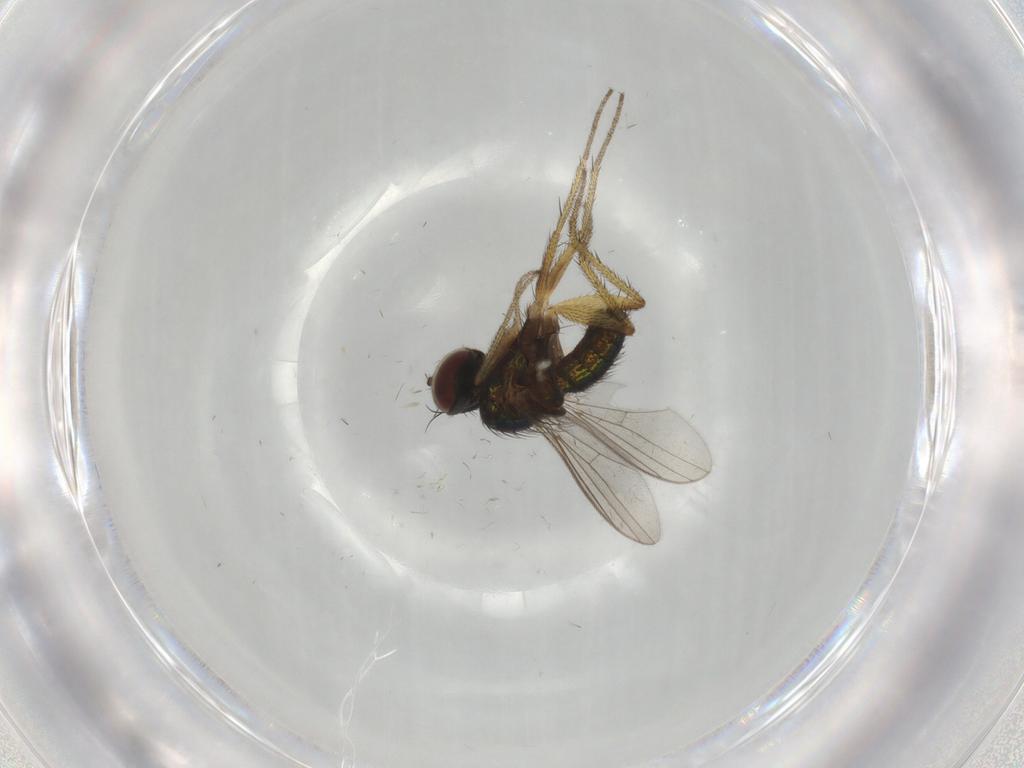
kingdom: Animalia
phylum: Arthropoda
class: Insecta
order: Diptera
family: Dolichopodidae
